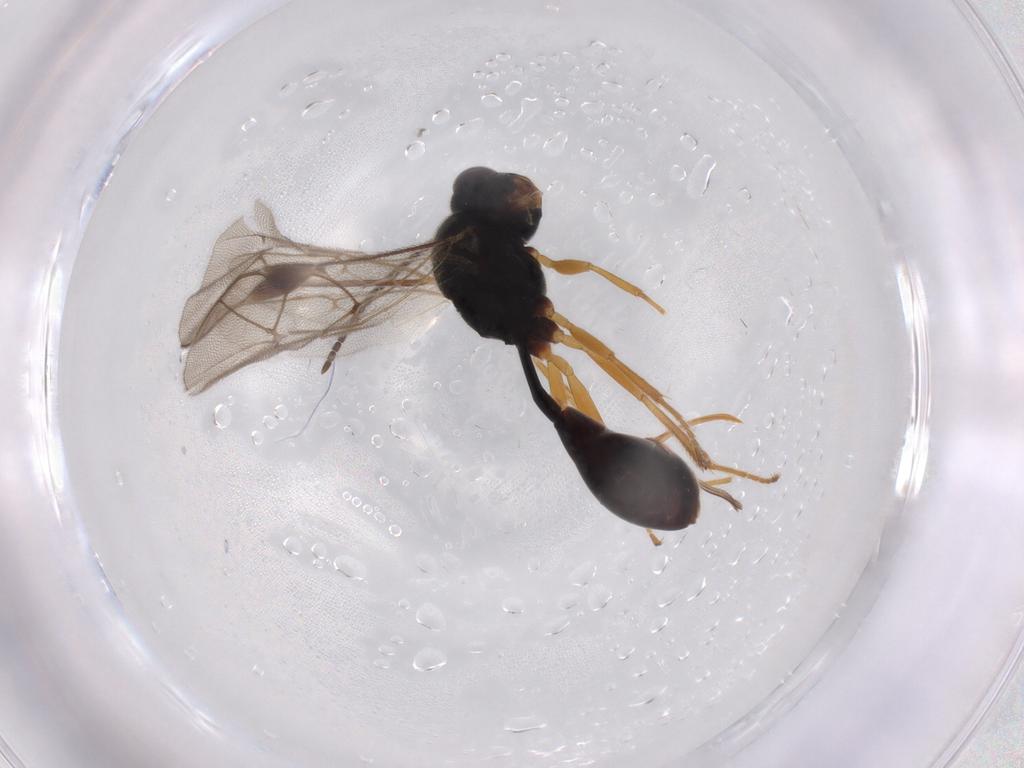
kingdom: Animalia
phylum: Arthropoda
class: Insecta
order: Hymenoptera
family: Ichneumonidae
